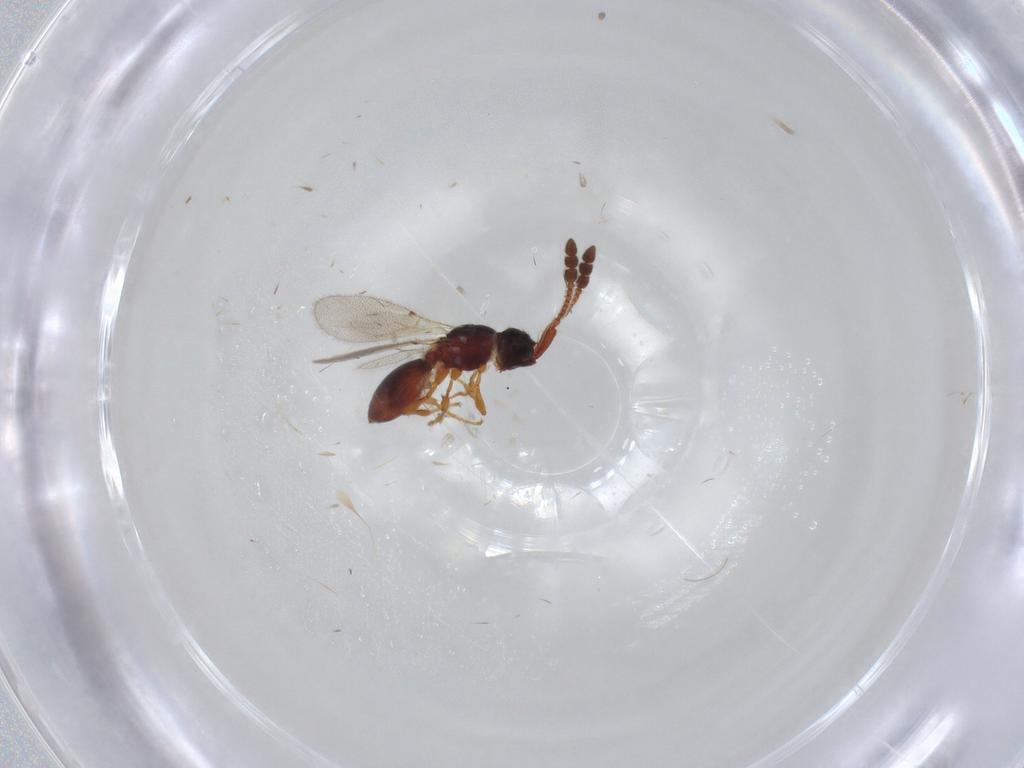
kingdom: Animalia
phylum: Arthropoda
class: Insecta
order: Hymenoptera
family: Diapriidae
